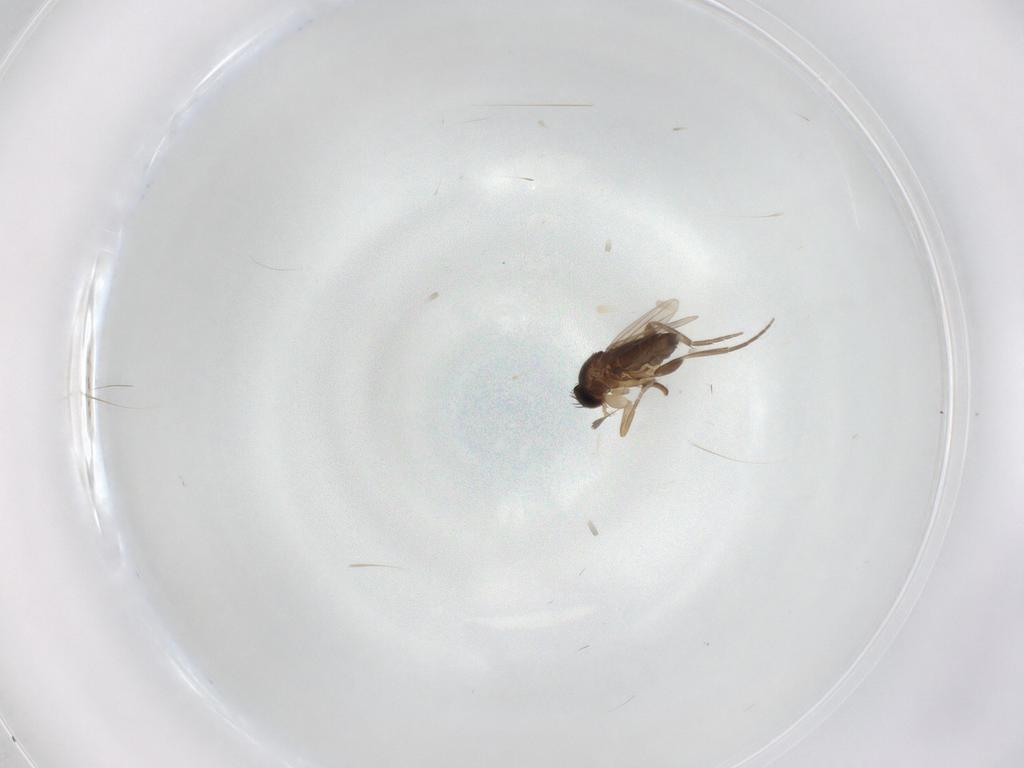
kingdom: Animalia
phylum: Arthropoda
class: Insecta
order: Diptera
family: Phoridae
